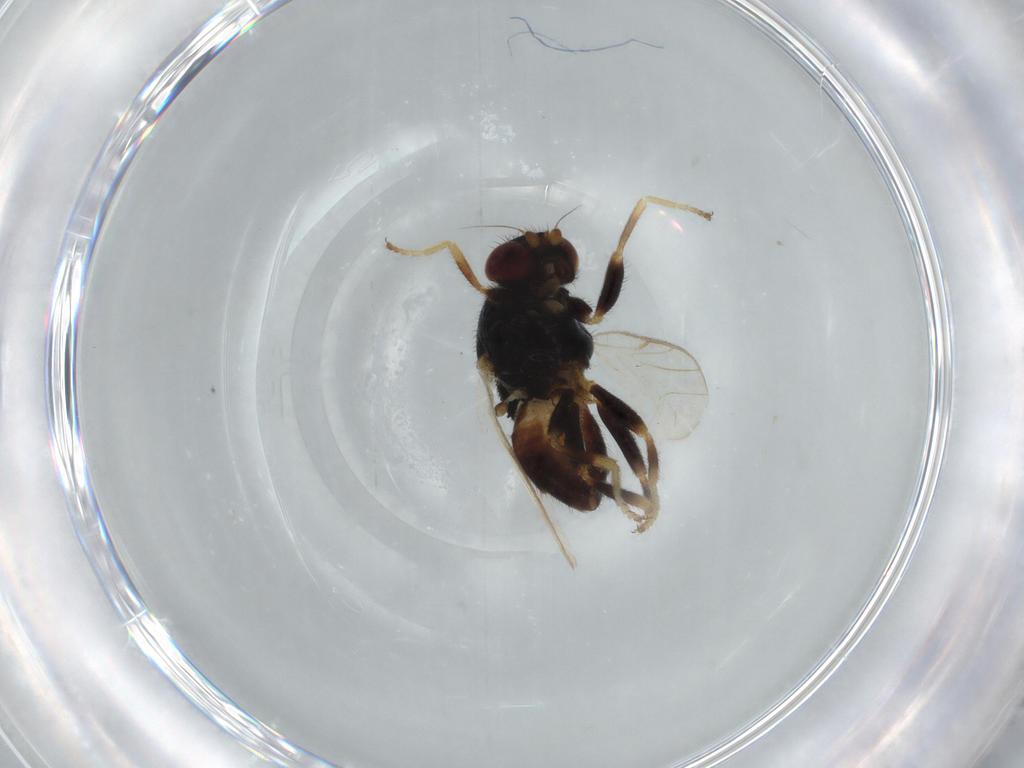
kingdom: Animalia
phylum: Arthropoda
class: Insecta
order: Diptera
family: Chloropidae
